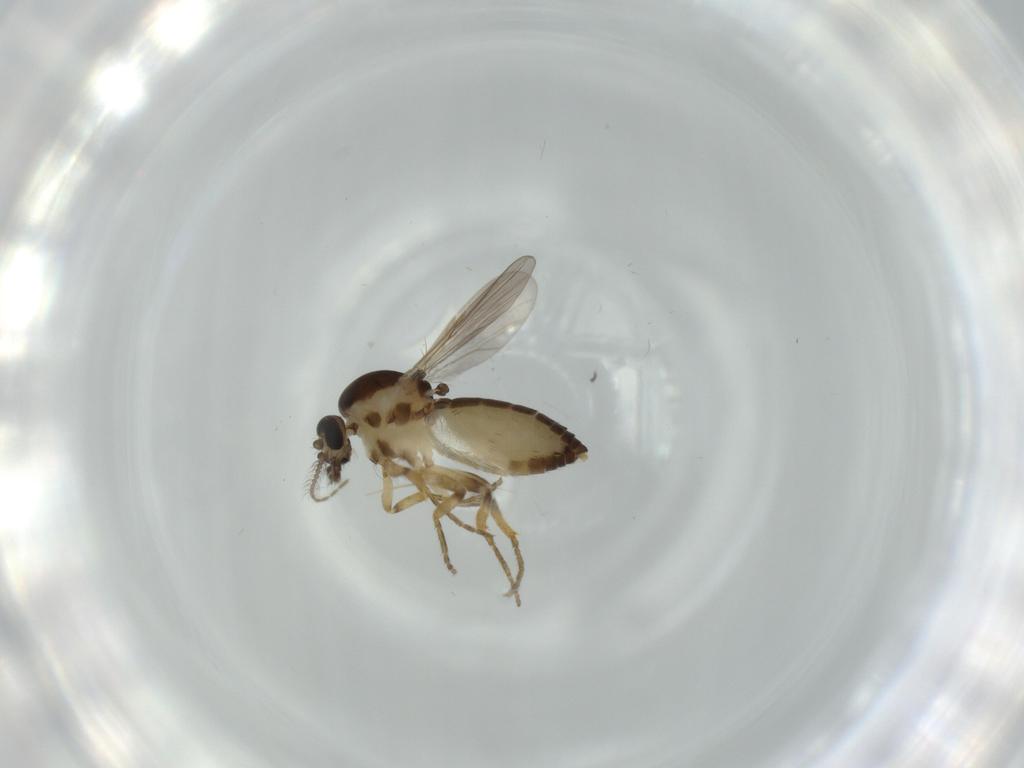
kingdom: Animalia
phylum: Arthropoda
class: Insecta
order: Diptera
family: Ceratopogonidae
